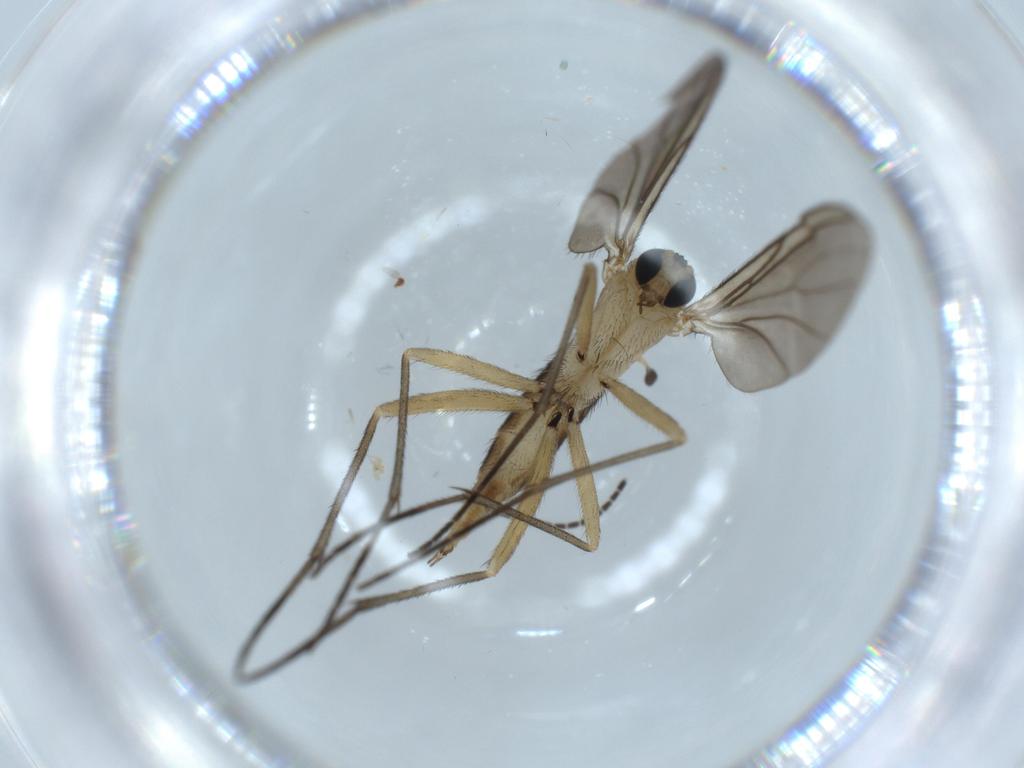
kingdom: Animalia
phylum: Arthropoda
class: Insecta
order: Diptera
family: Sciaridae
